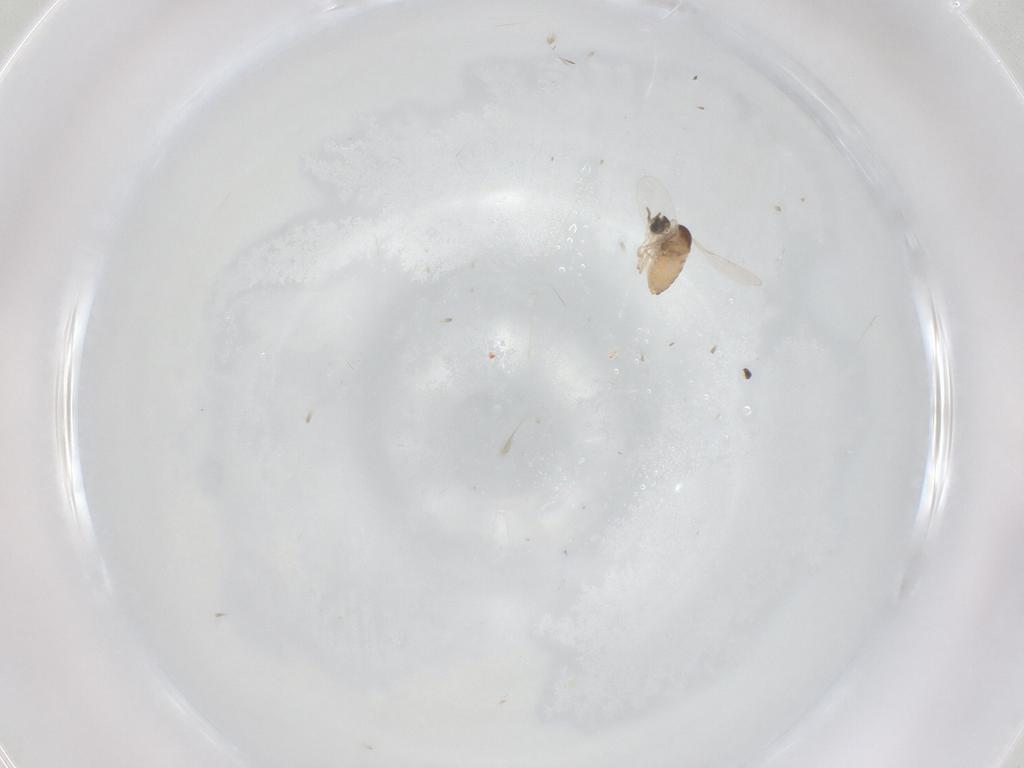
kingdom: Animalia
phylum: Arthropoda
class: Insecta
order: Diptera
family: Cecidomyiidae
